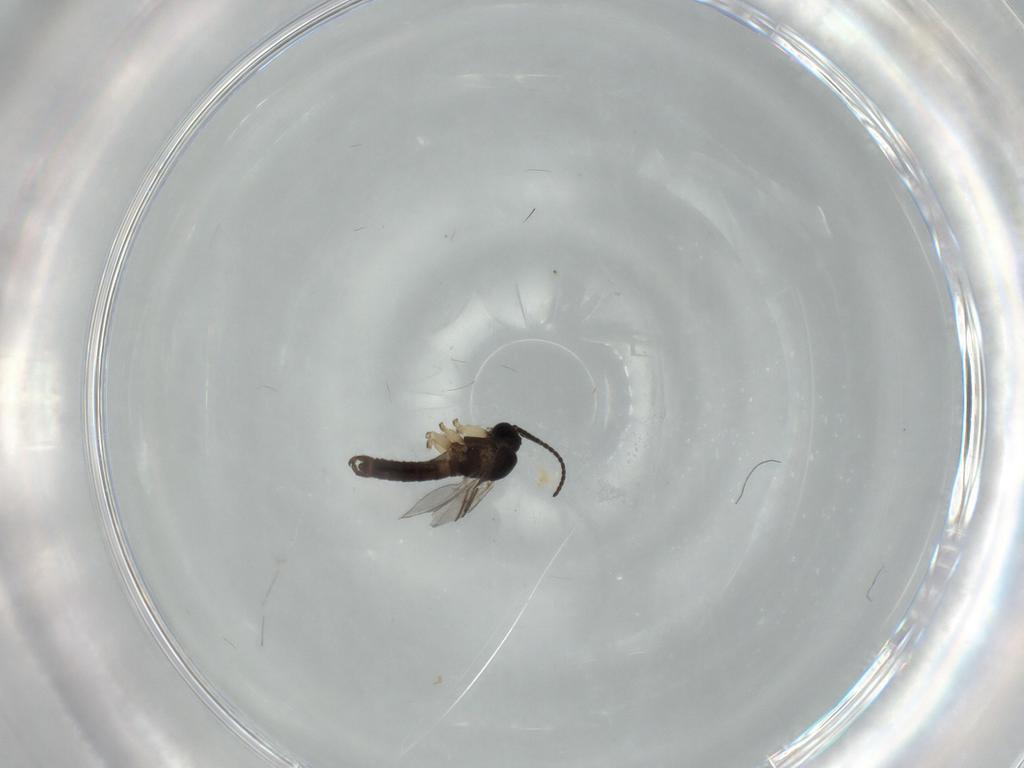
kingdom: Animalia
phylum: Arthropoda
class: Insecta
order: Diptera
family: Sciaridae
